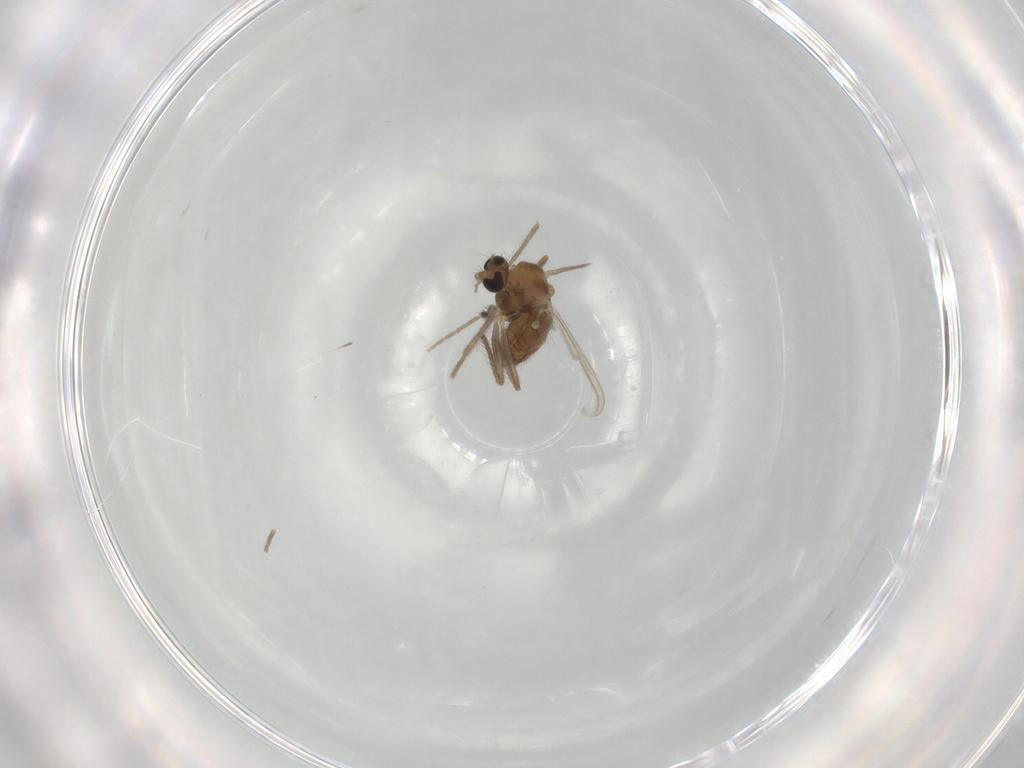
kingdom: Animalia
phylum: Arthropoda
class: Insecta
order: Diptera
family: Chironomidae
